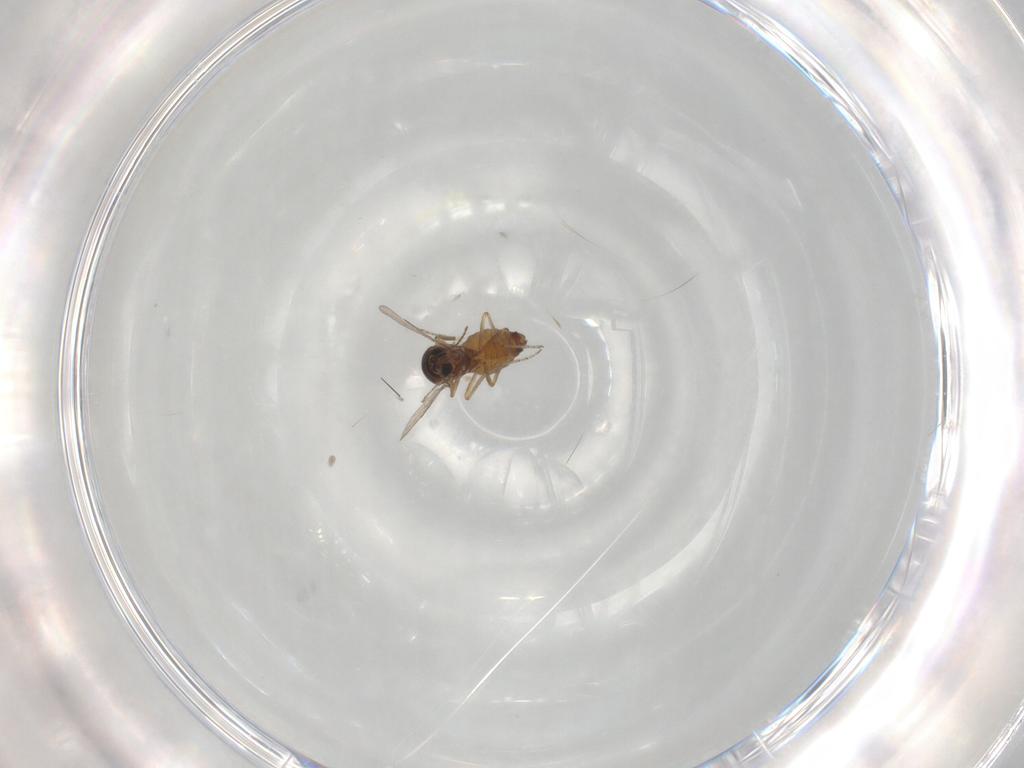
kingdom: Animalia
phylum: Arthropoda
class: Insecta
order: Diptera
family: Ceratopogonidae
